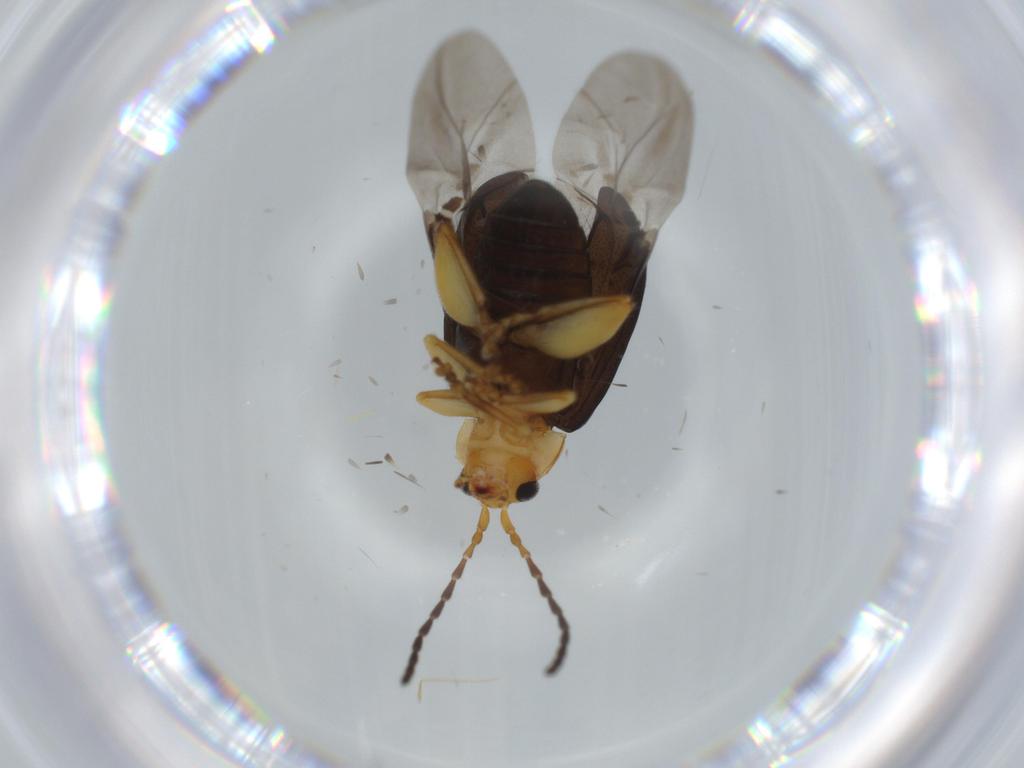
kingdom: Animalia
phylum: Arthropoda
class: Insecta
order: Coleoptera
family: Chrysomelidae
